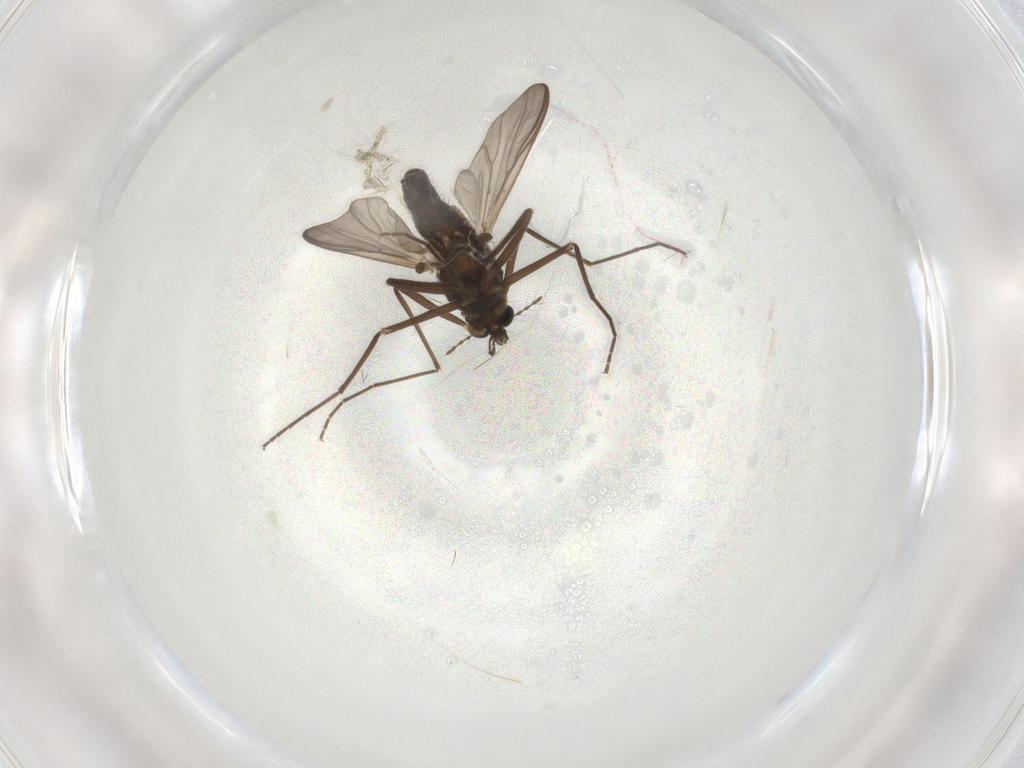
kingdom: Animalia
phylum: Arthropoda
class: Insecta
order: Diptera
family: Chironomidae
